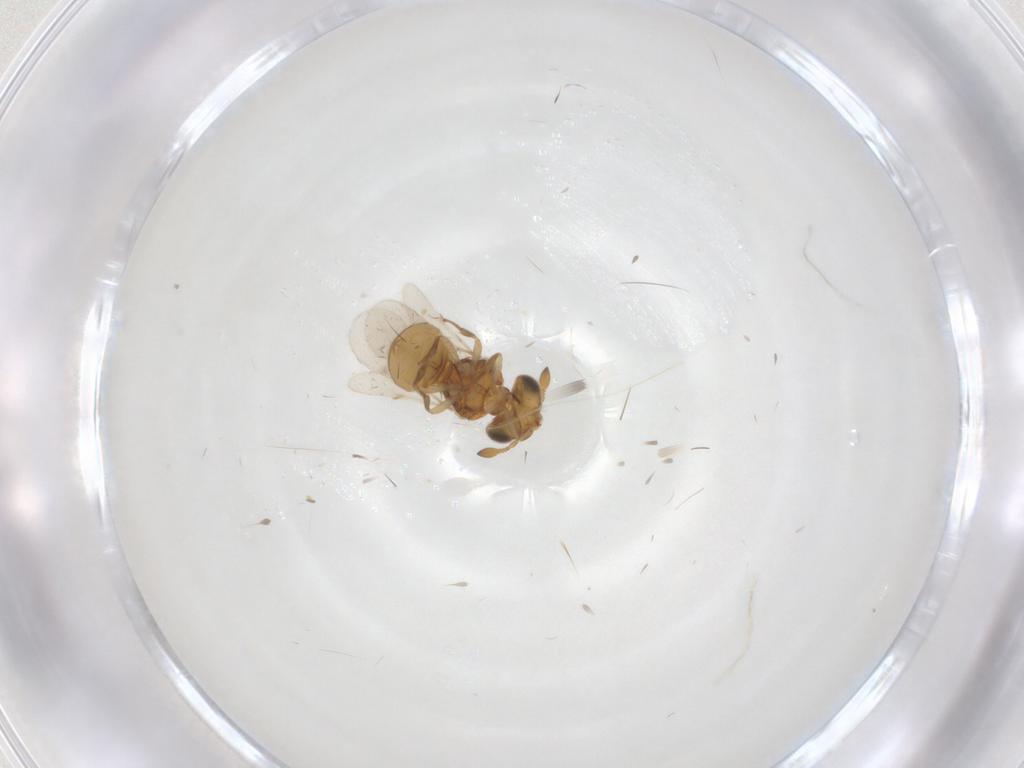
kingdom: Animalia
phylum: Arthropoda
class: Insecta
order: Hymenoptera
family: Scelionidae
